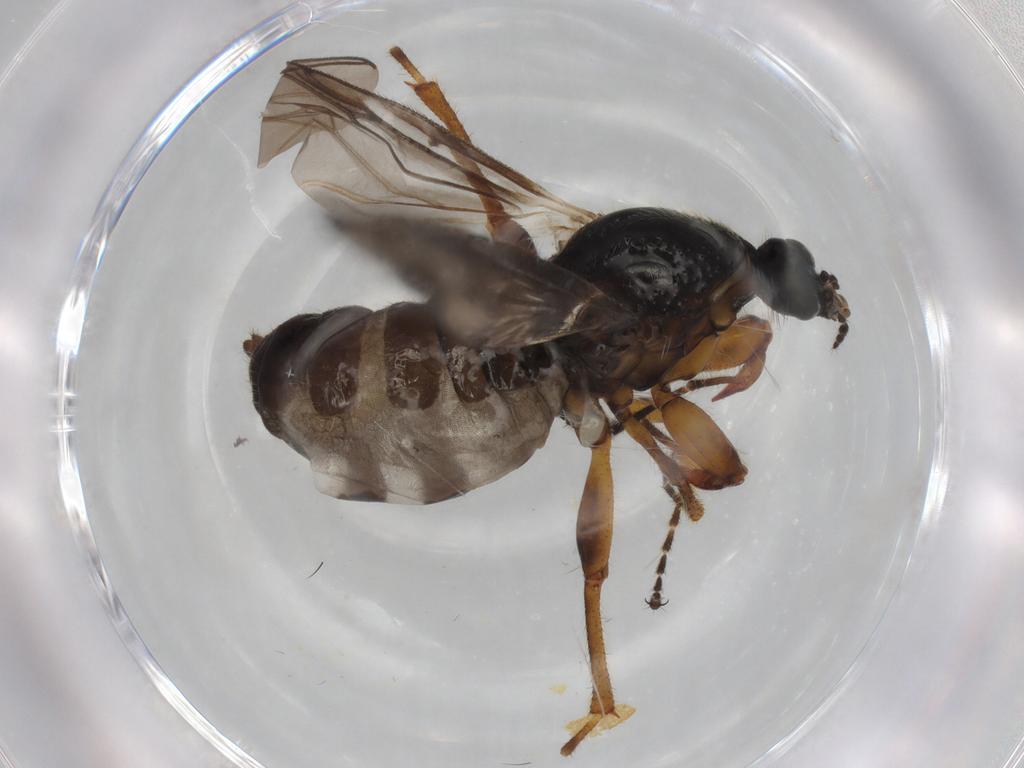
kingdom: Animalia
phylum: Arthropoda
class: Insecta
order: Diptera
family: Bibionidae
